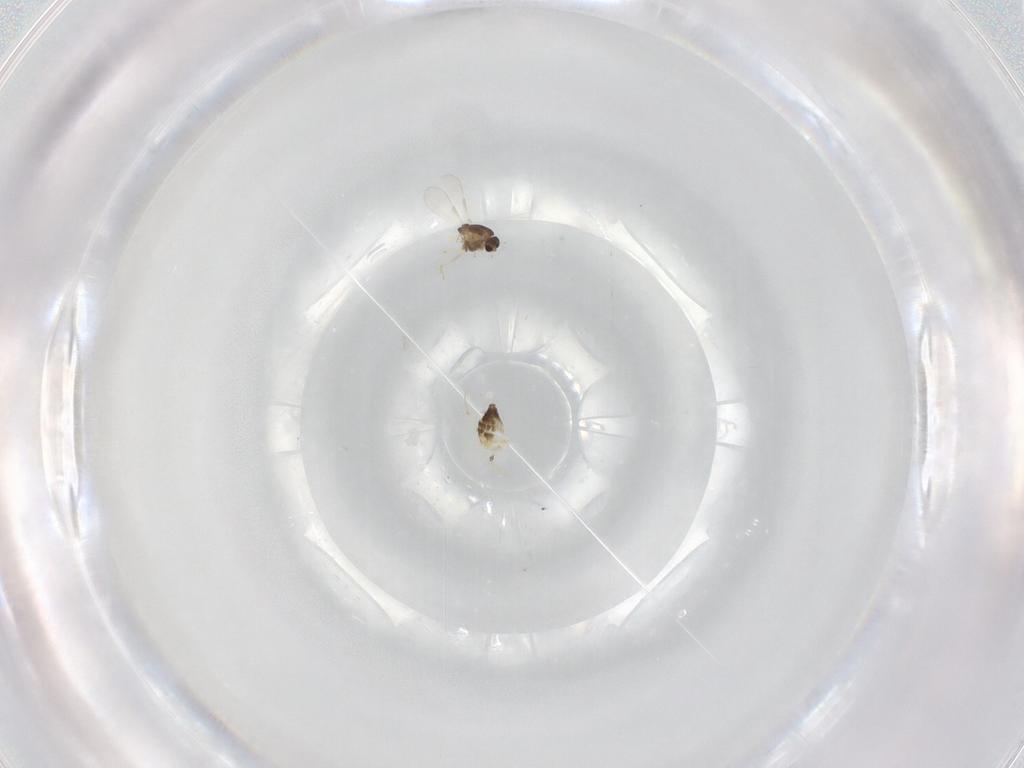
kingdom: Animalia
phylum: Arthropoda
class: Insecta
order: Diptera
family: Chironomidae
